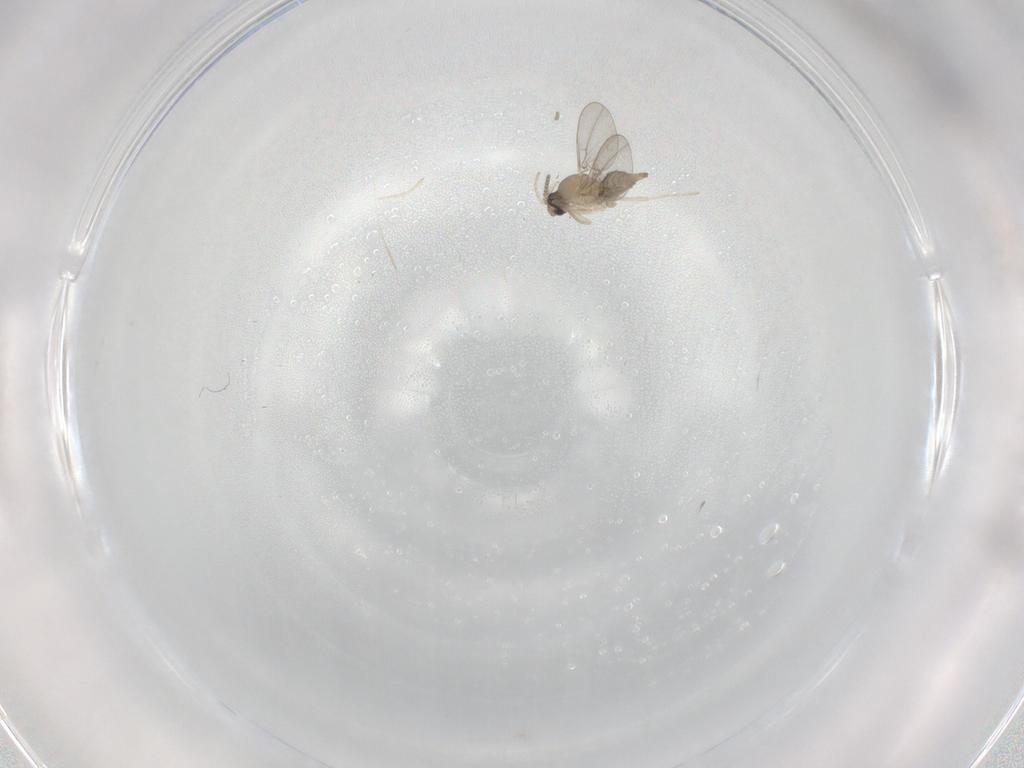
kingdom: Animalia
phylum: Arthropoda
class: Insecta
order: Diptera
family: Cecidomyiidae
